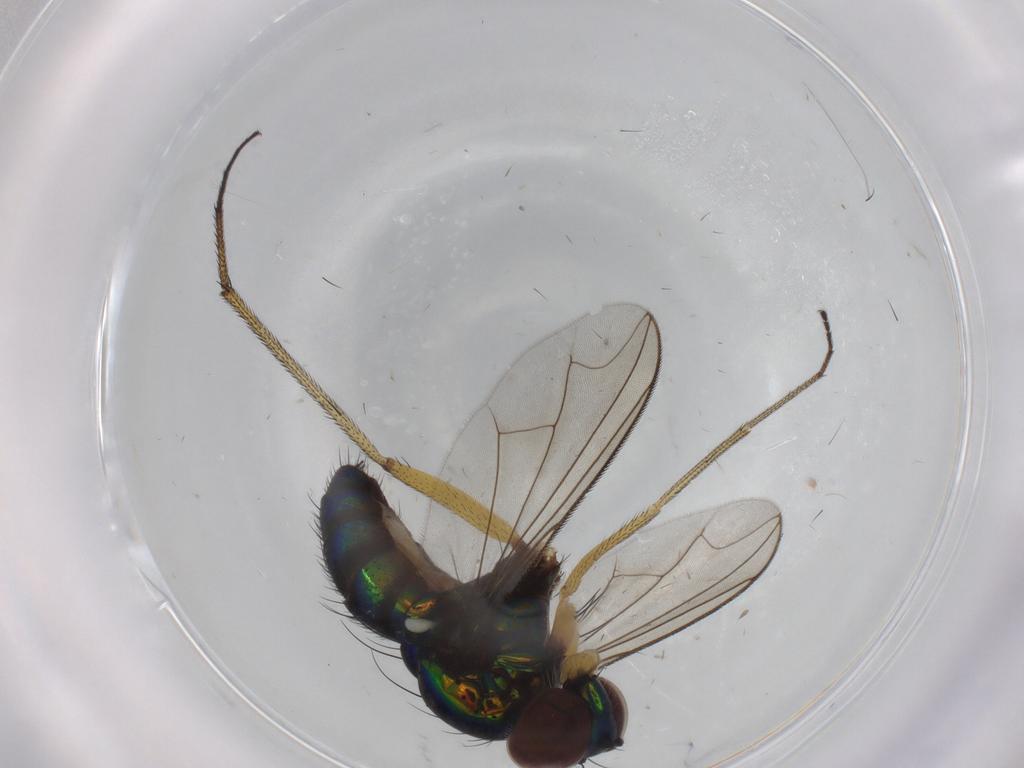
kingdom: Animalia
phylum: Arthropoda
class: Insecta
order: Diptera
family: Dolichopodidae
